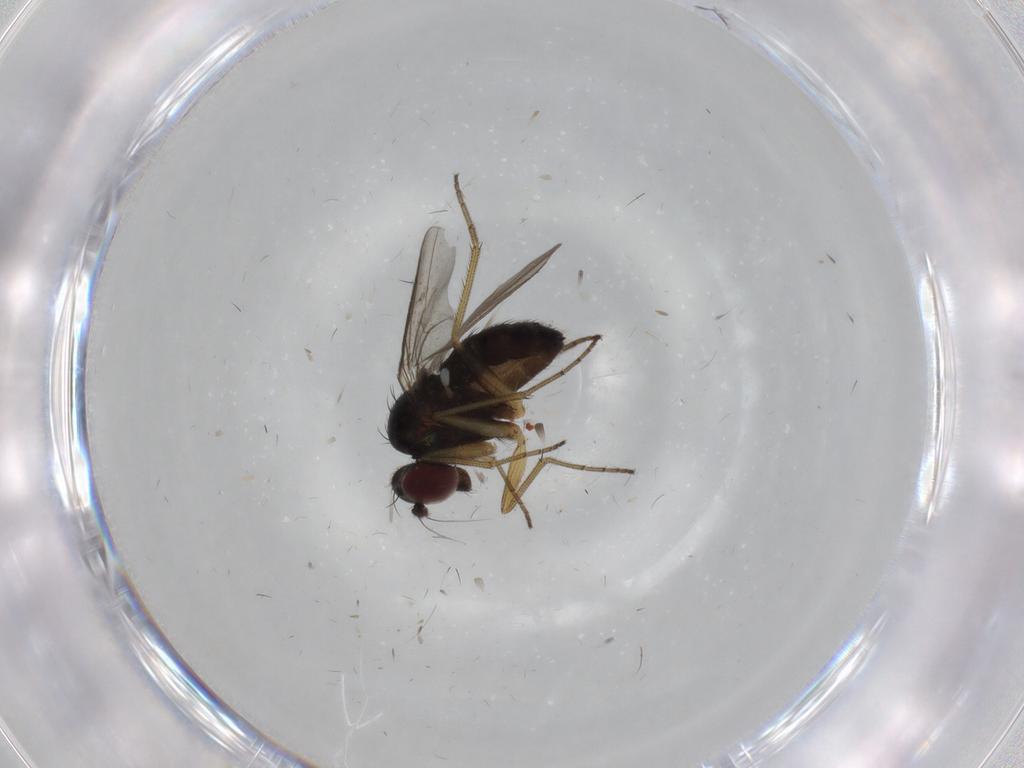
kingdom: Animalia
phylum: Arthropoda
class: Insecta
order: Diptera
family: Dolichopodidae
